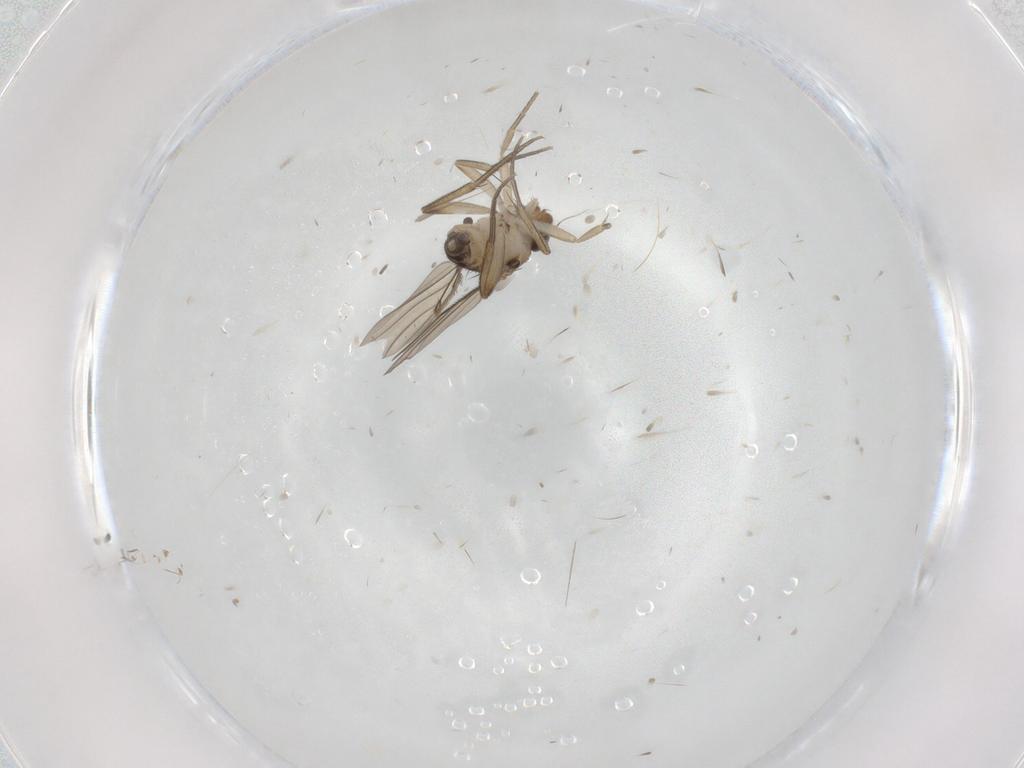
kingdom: Animalia
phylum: Arthropoda
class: Insecta
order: Diptera
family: Phoridae
